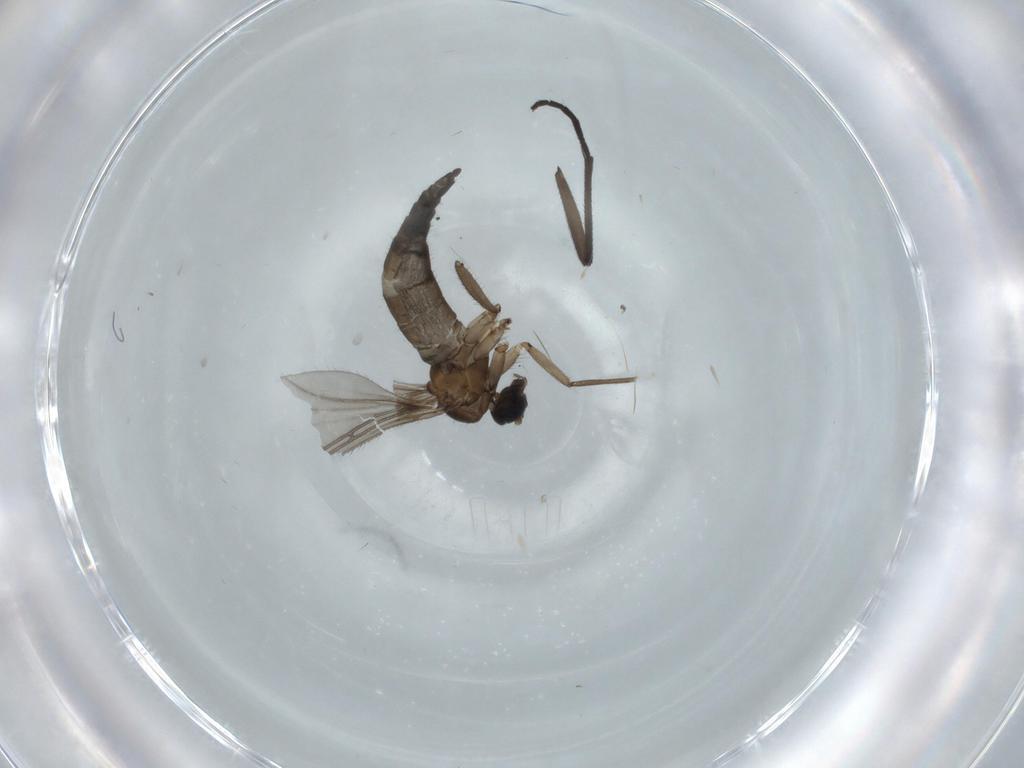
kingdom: Animalia
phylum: Arthropoda
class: Insecta
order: Diptera
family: Sciaridae
